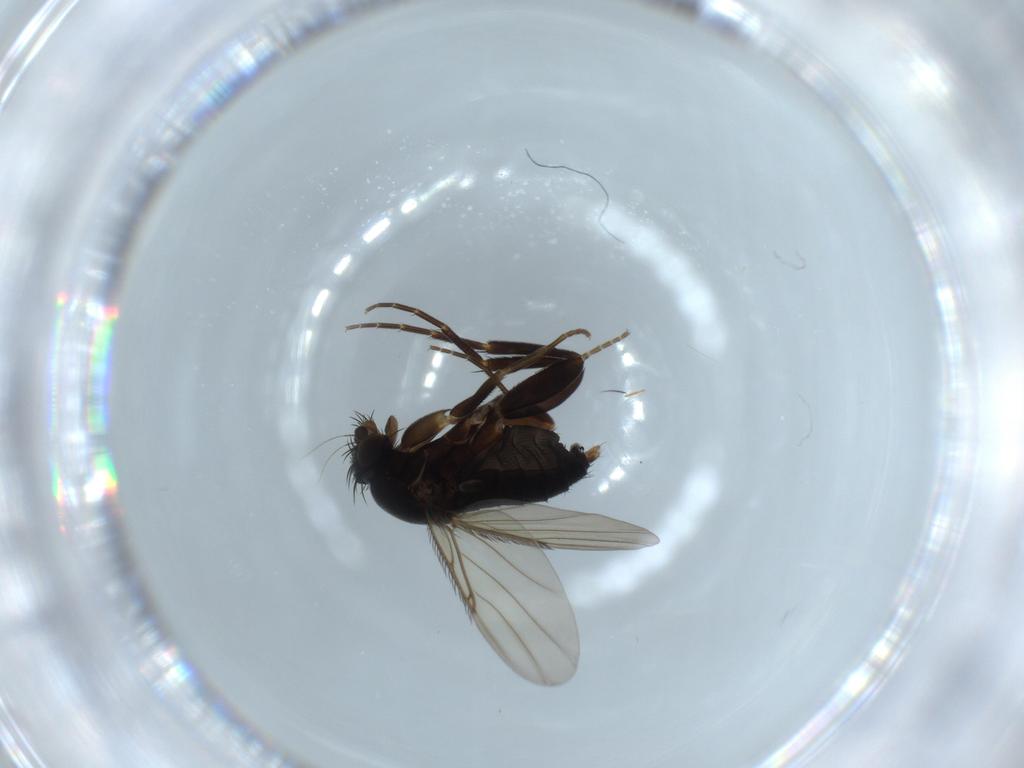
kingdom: Animalia
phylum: Arthropoda
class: Insecta
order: Diptera
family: Phoridae
